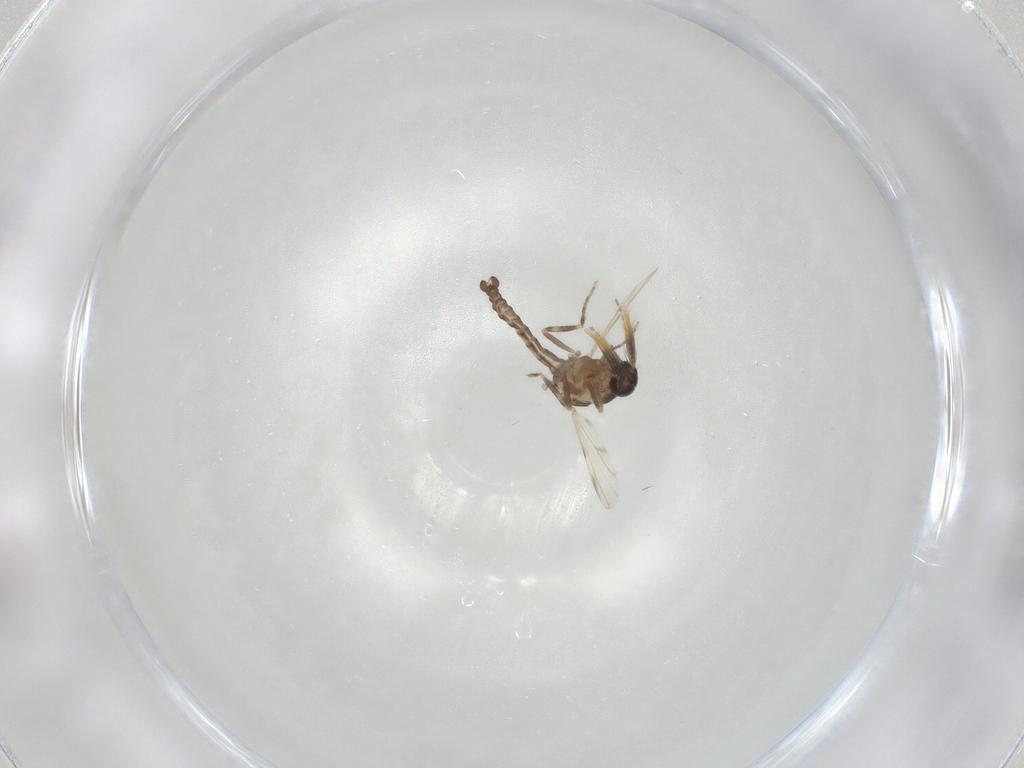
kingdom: Animalia
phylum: Arthropoda
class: Insecta
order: Diptera
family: Ceratopogonidae
